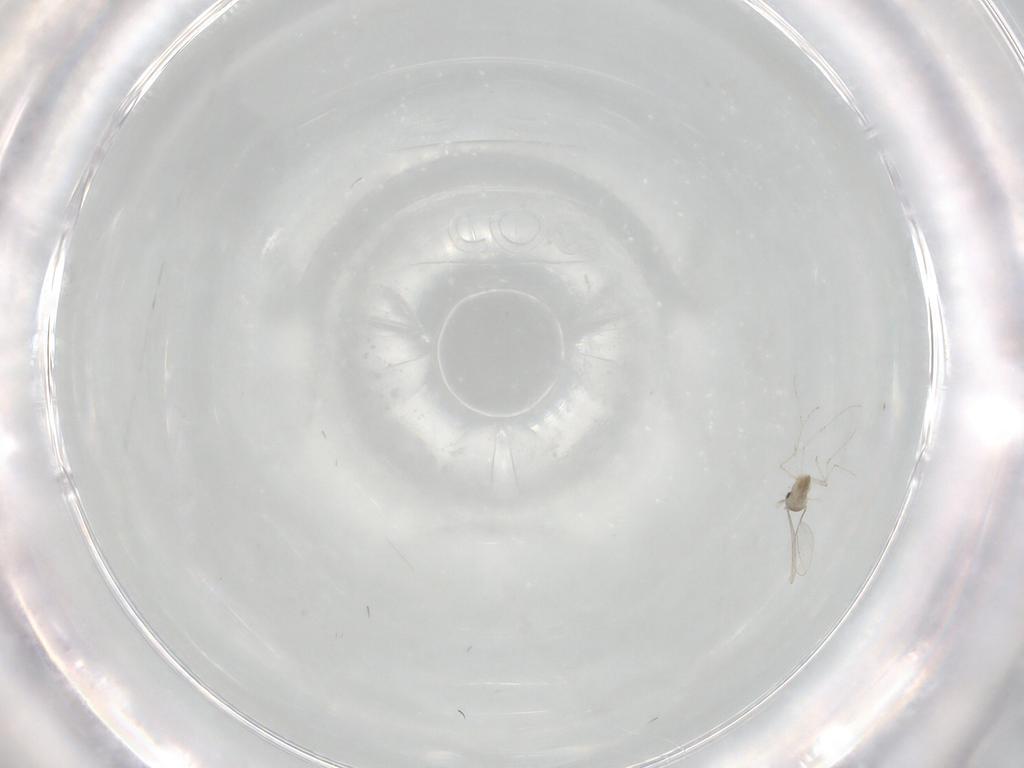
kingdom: Animalia
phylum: Arthropoda
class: Insecta
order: Diptera
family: Cecidomyiidae
